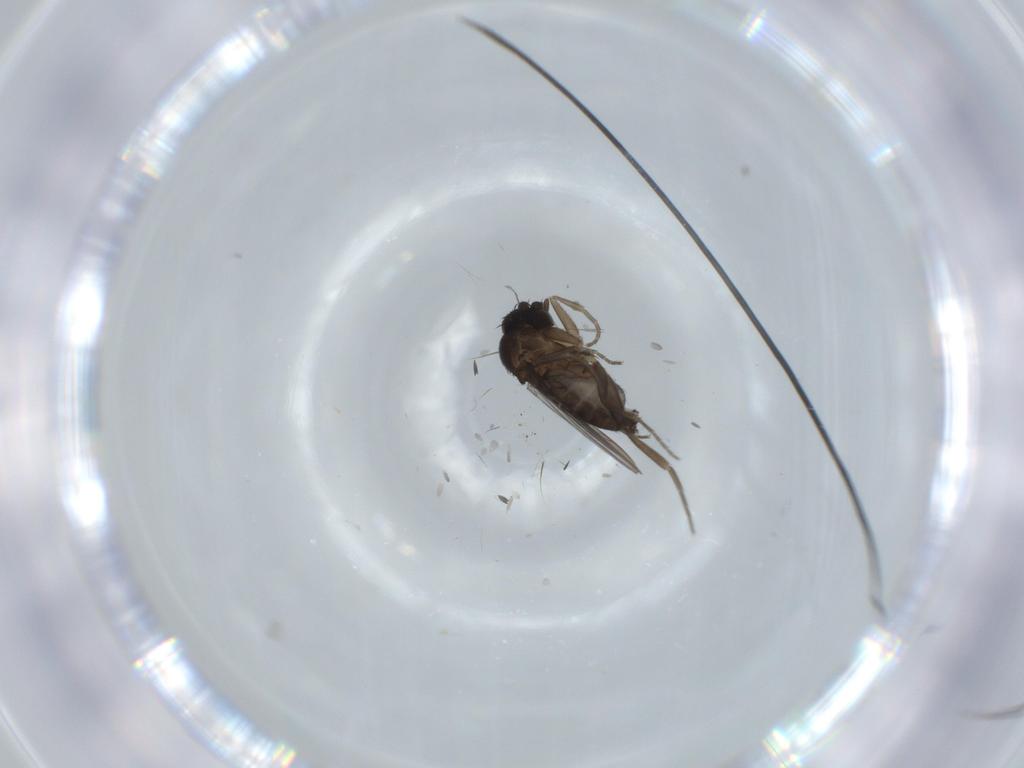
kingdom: Animalia
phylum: Arthropoda
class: Insecta
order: Diptera
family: Phoridae
